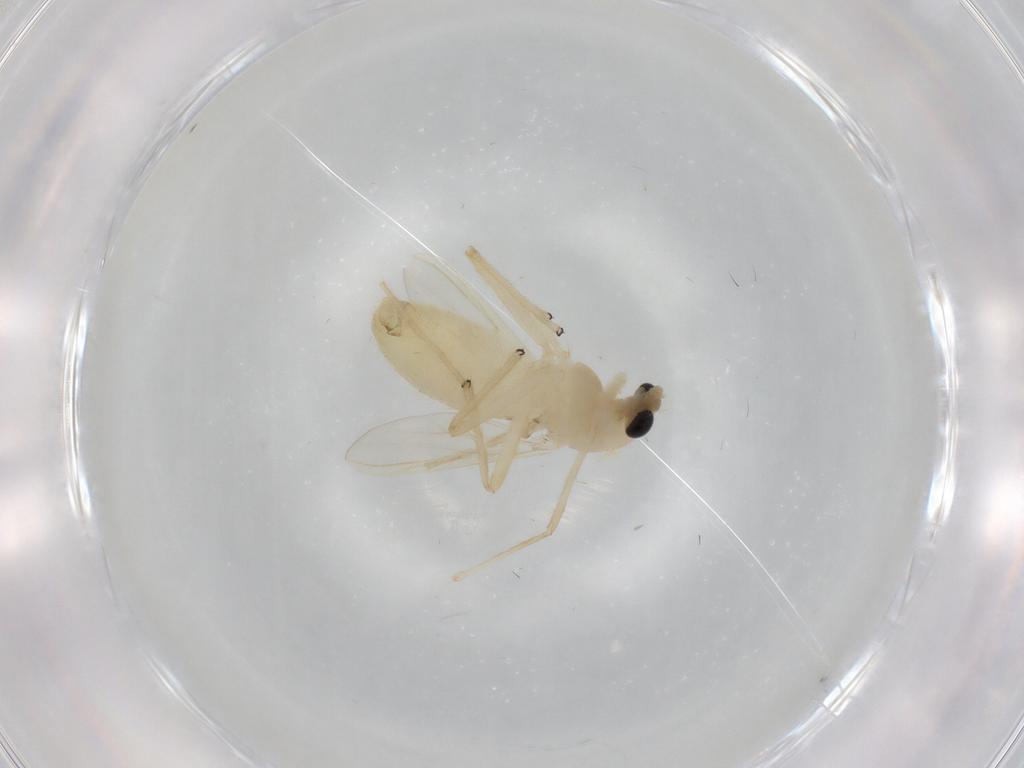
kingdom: Animalia
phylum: Arthropoda
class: Insecta
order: Diptera
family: Chironomidae
